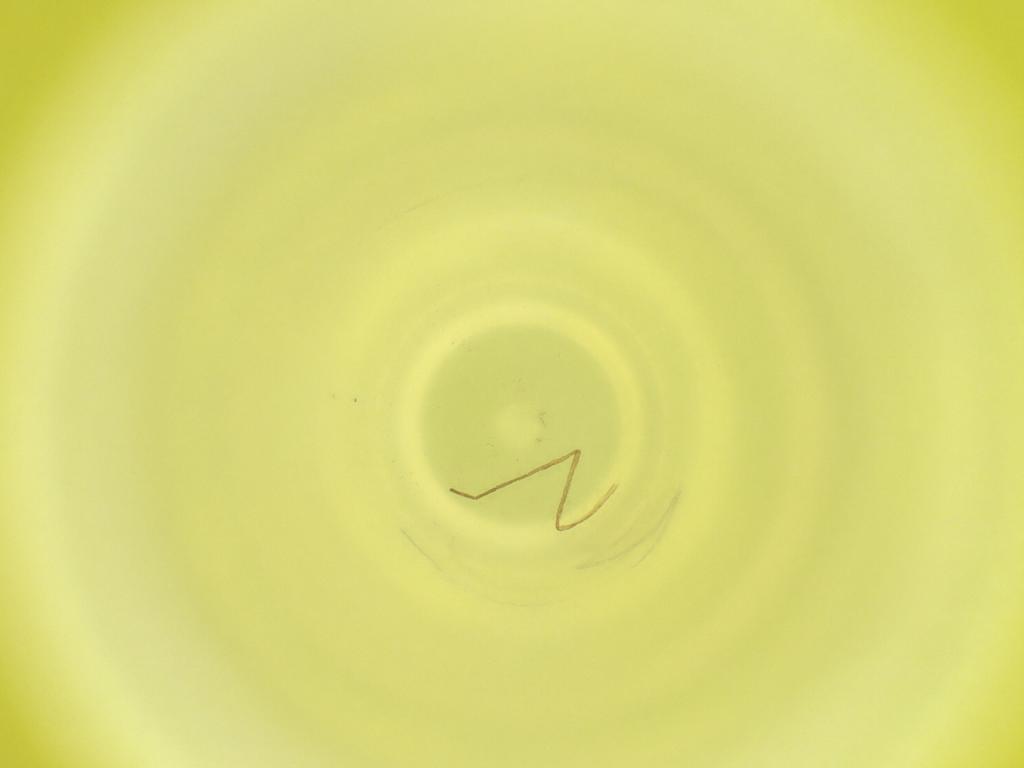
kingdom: Animalia
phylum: Arthropoda
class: Insecta
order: Diptera
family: Cecidomyiidae
